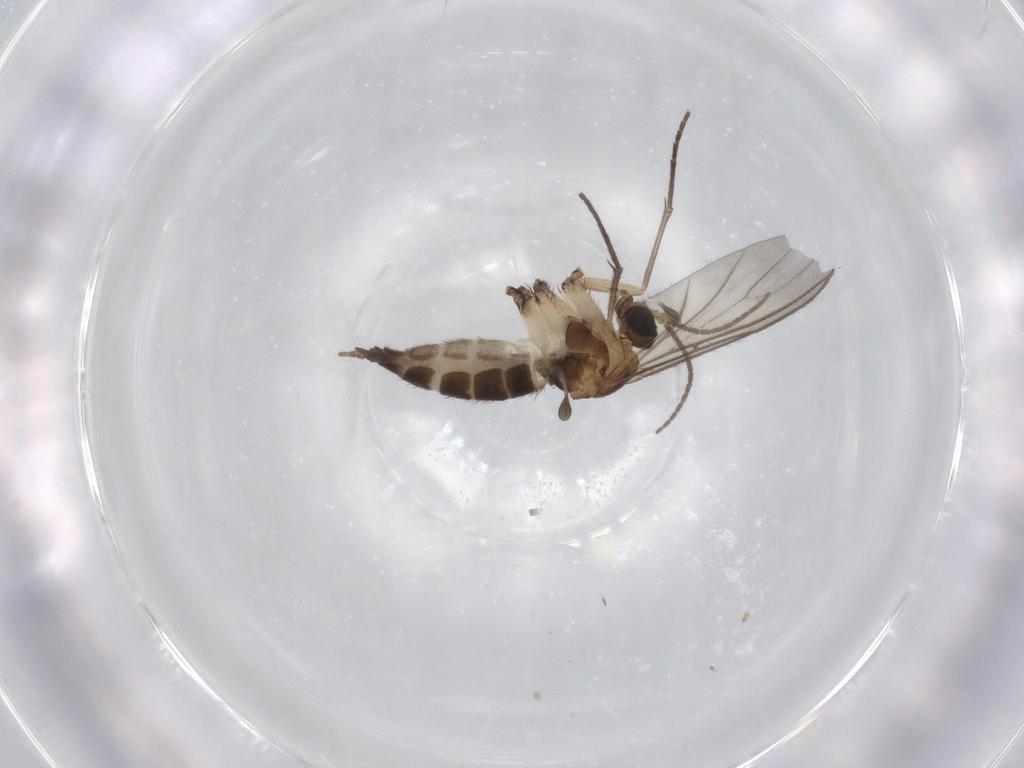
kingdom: Animalia
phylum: Arthropoda
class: Insecta
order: Diptera
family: Sciaridae
